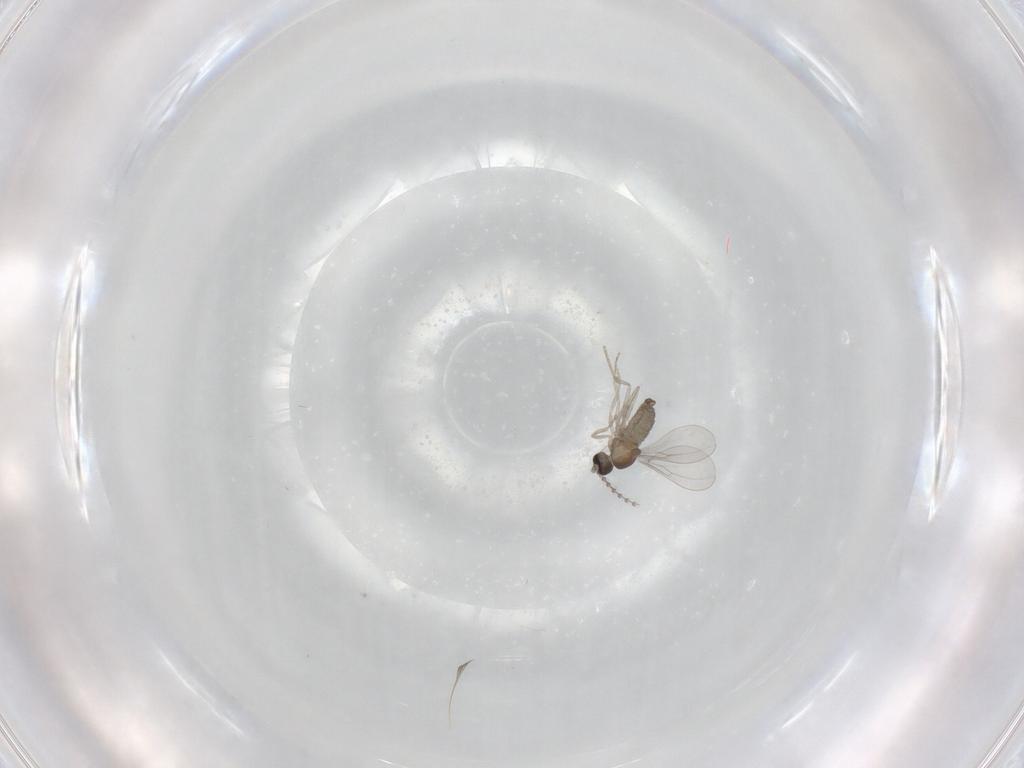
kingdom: Animalia
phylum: Arthropoda
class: Insecta
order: Diptera
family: Cecidomyiidae
